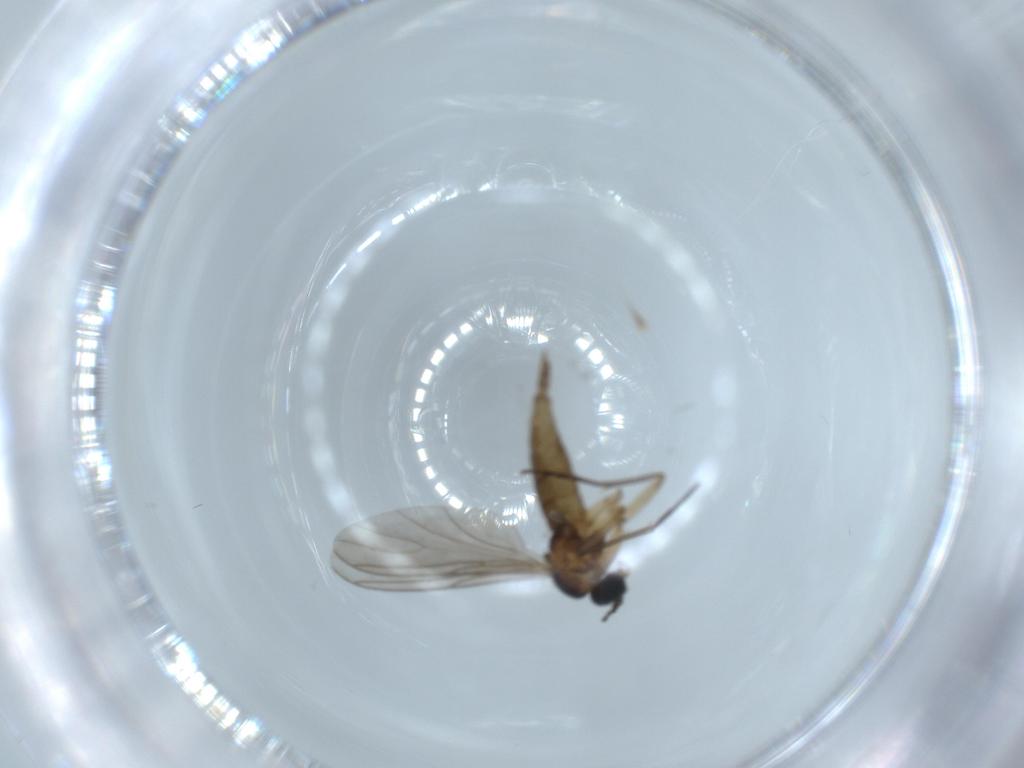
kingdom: Animalia
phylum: Arthropoda
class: Insecta
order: Diptera
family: Sciaridae
